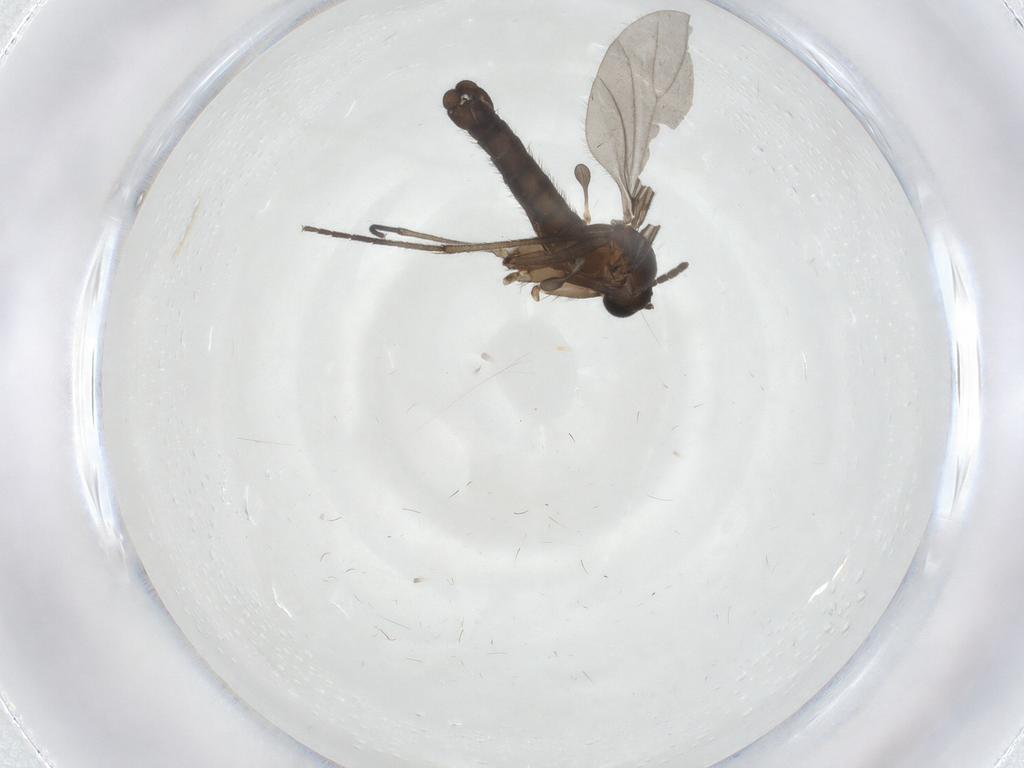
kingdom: Animalia
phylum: Arthropoda
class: Insecta
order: Diptera
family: Sciaridae
